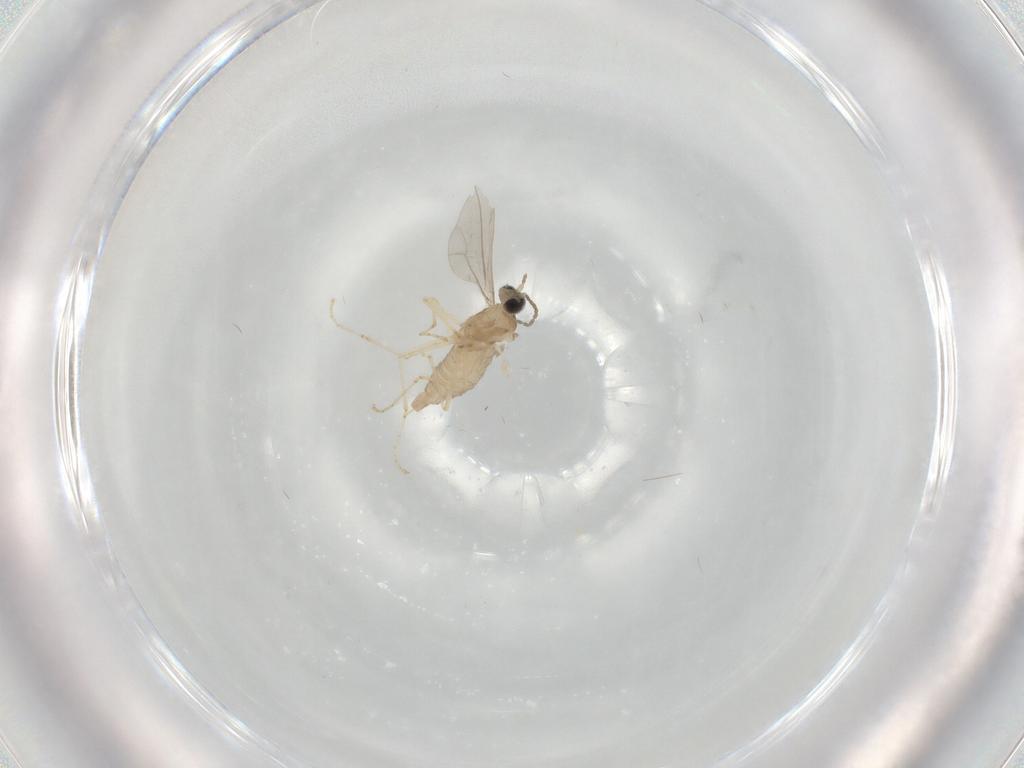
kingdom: Animalia
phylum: Arthropoda
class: Insecta
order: Diptera
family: Cecidomyiidae
